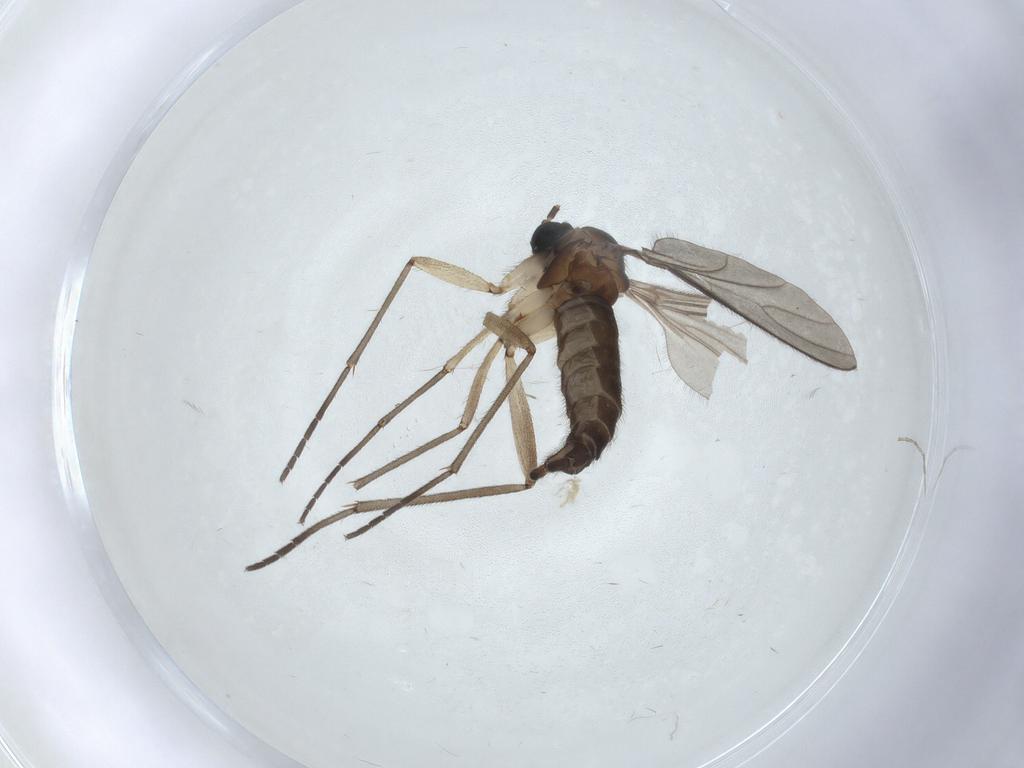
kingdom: Animalia
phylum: Arthropoda
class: Insecta
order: Diptera
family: Sciaridae
